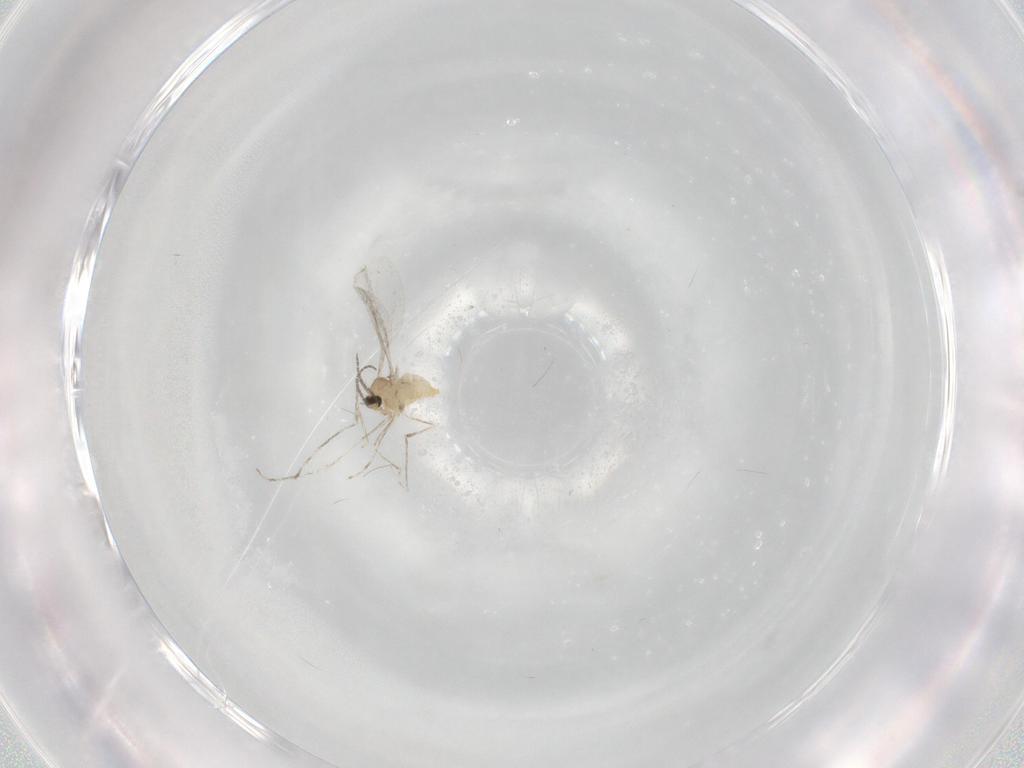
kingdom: Animalia
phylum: Arthropoda
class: Insecta
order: Diptera
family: Cecidomyiidae
